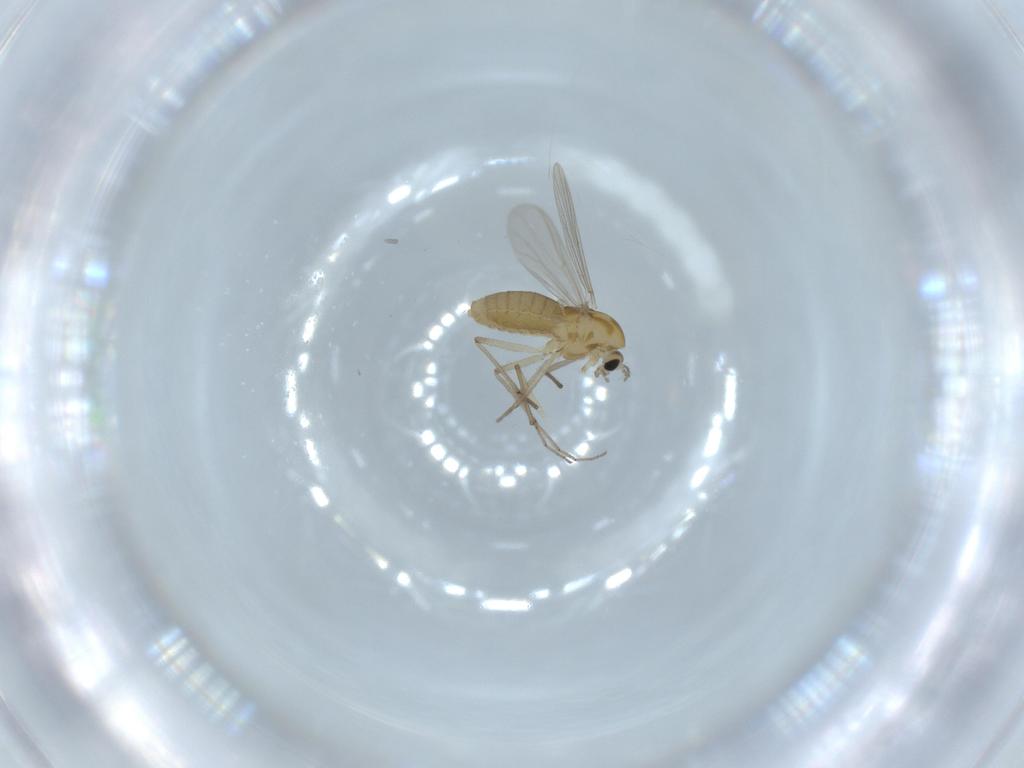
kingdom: Animalia
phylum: Arthropoda
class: Insecta
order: Diptera
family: Chironomidae
